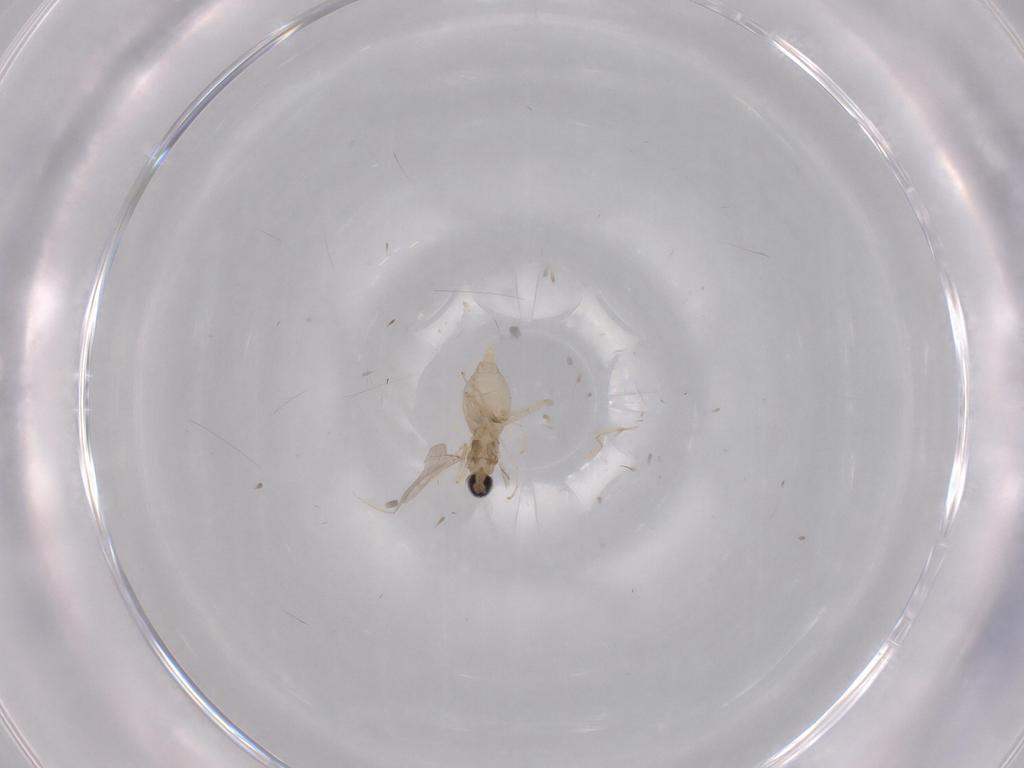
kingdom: Animalia
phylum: Arthropoda
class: Insecta
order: Diptera
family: Cecidomyiidae
